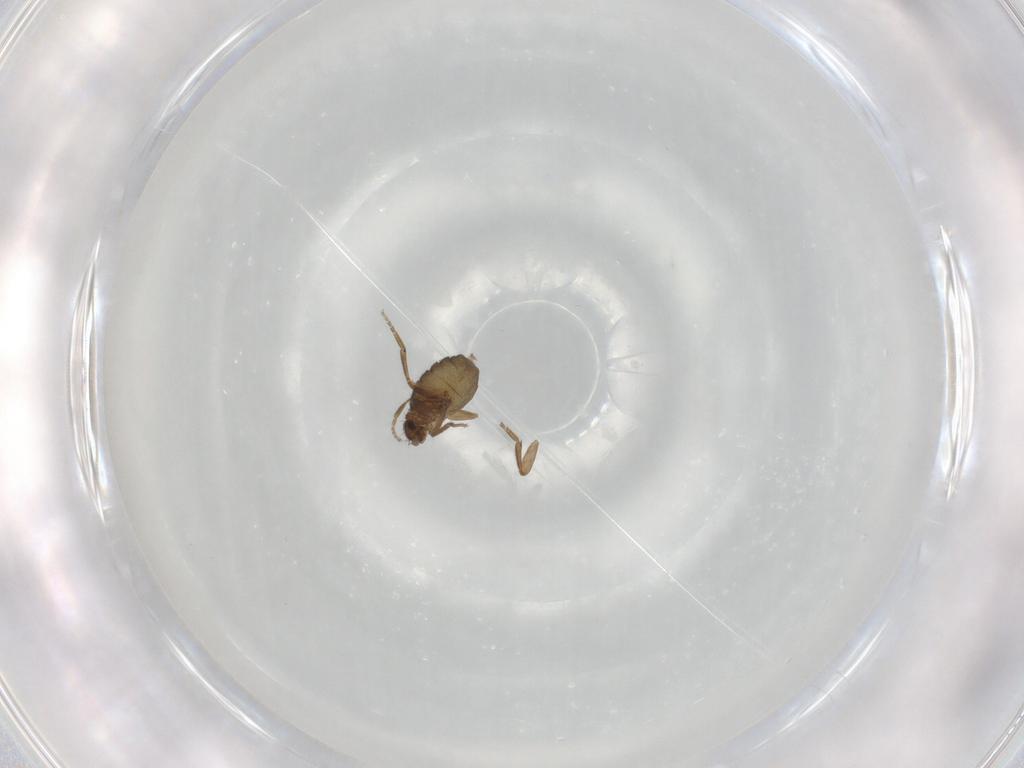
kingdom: Animalia
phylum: Arthropoda
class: Insecta
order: Diptera
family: Phoridae
